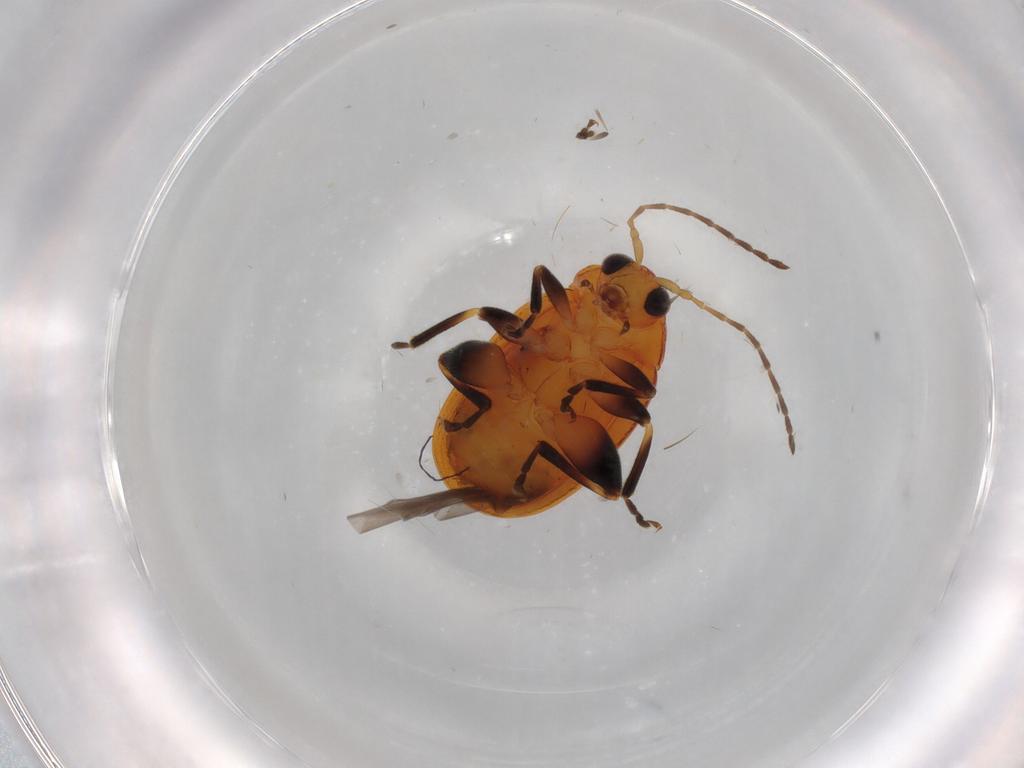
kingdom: Animalia
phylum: Arthropoda
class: Insecta
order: Coleoptera
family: Chrysomelidae
